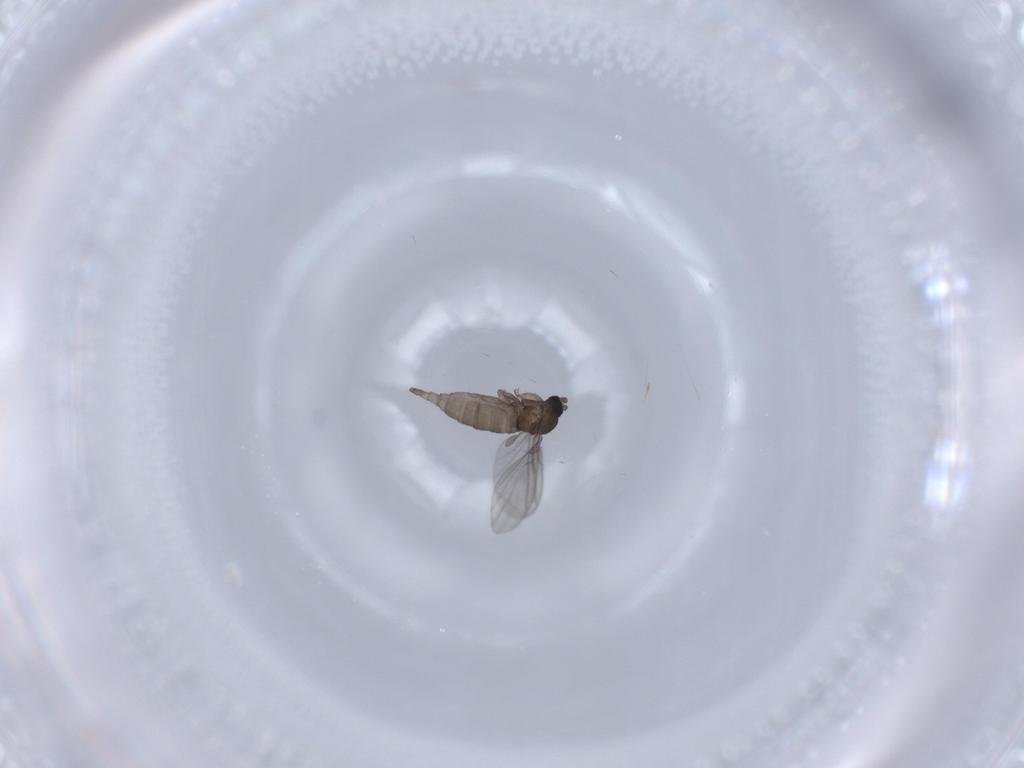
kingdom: Animalia
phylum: Arthropoda
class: Insecta
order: Diptera
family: Sciaridae
